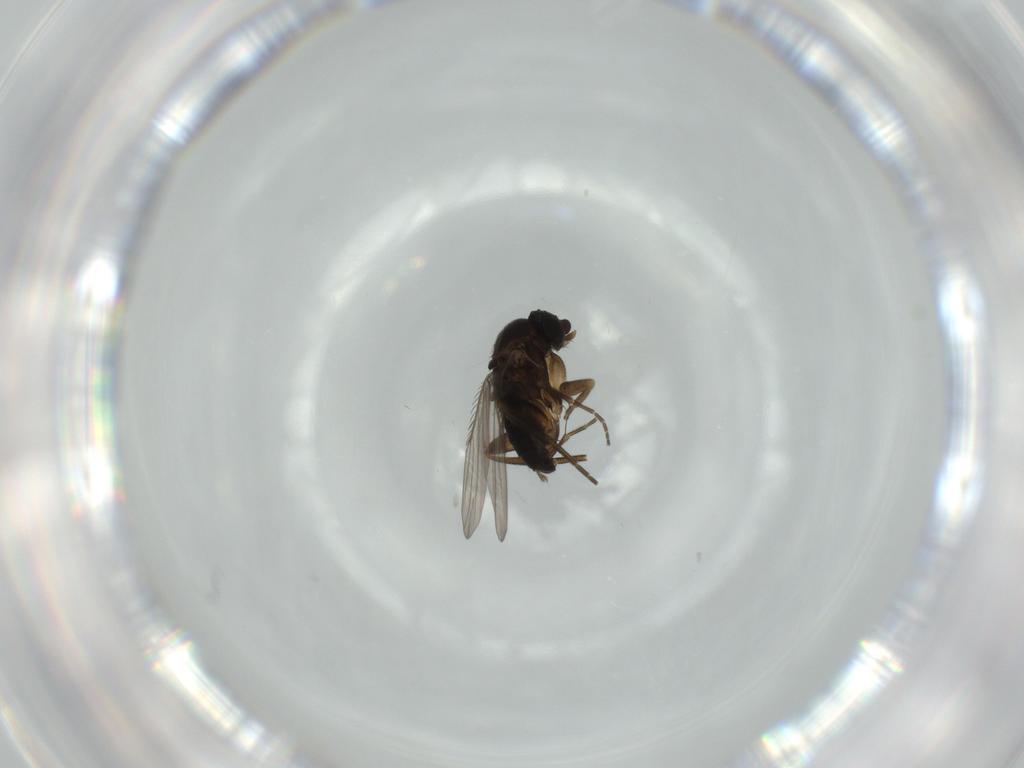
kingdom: Animalia
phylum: Arthropoda
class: Insecta
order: Diptera
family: Phoridae
